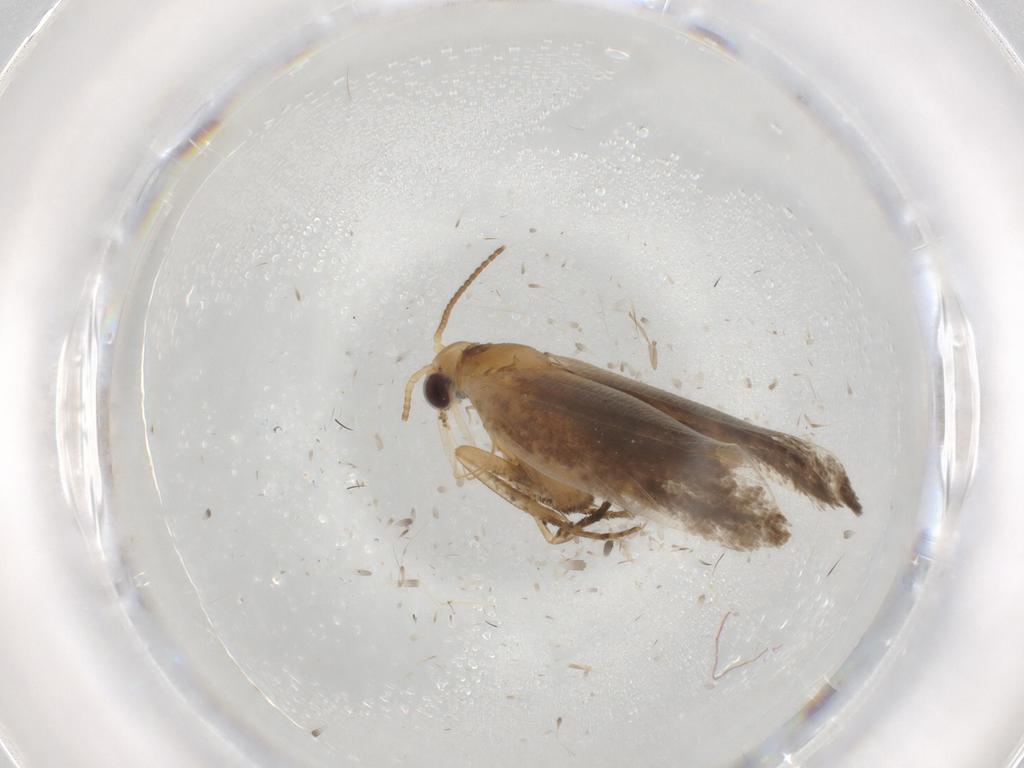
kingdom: Animalia
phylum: Arthropoda
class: Insecta
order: Lepidoptera
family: Ypsolophidae
